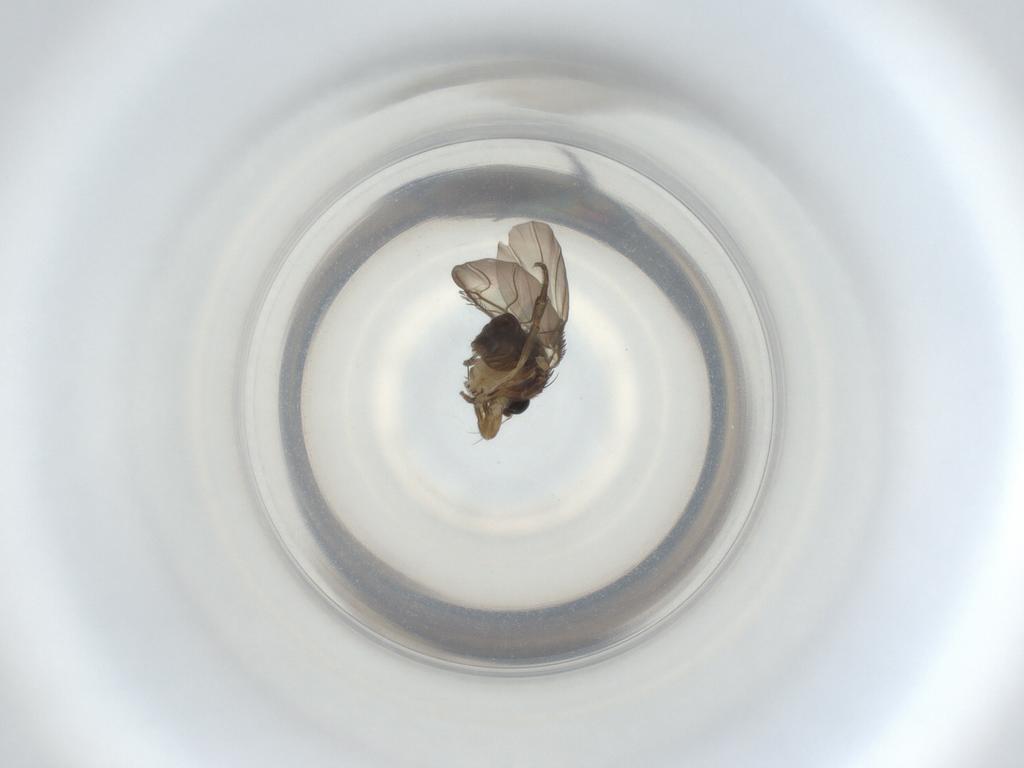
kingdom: Animalia
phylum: Arthropoda
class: Insecta
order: Diptera
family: Phoridae
